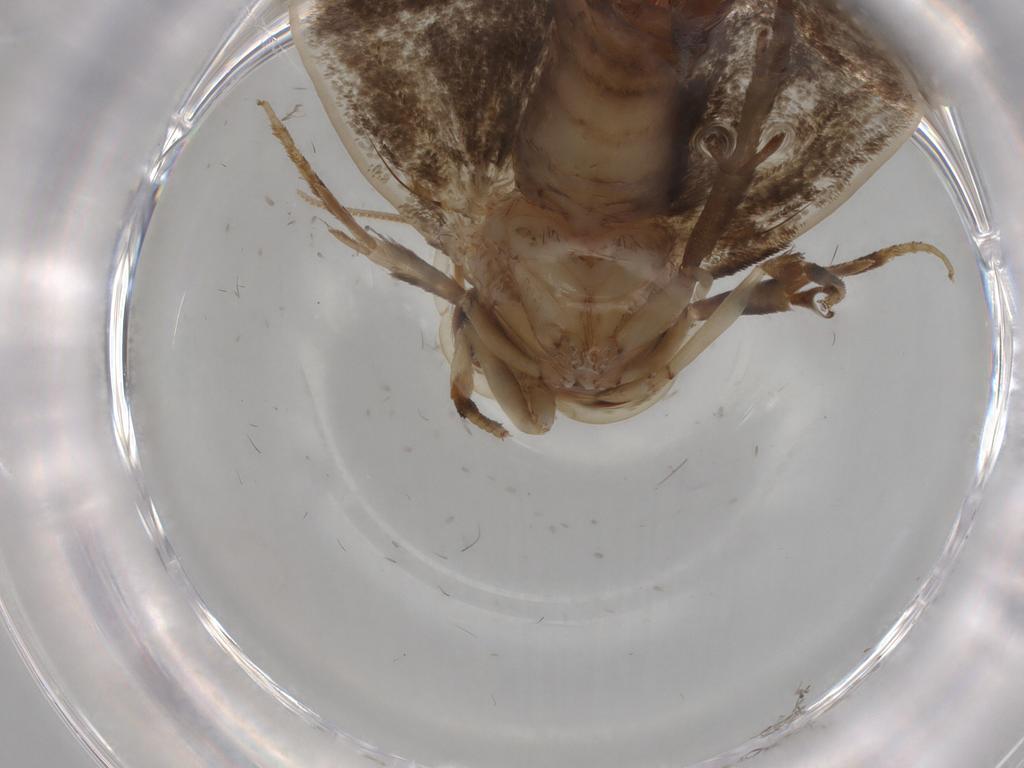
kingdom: Animalia
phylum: Arthropoda
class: Insecta
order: Lepidoptera
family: Tineidae
